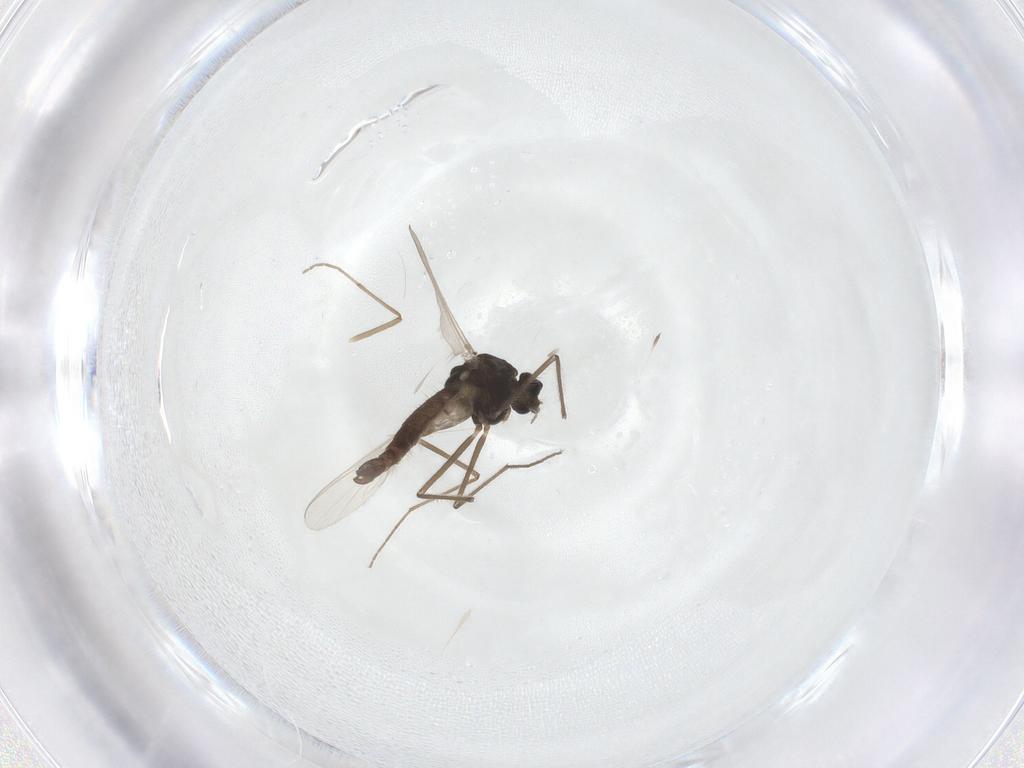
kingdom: Animalia
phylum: Arthropoda
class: Insecta
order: Diptera
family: Chironomidae
